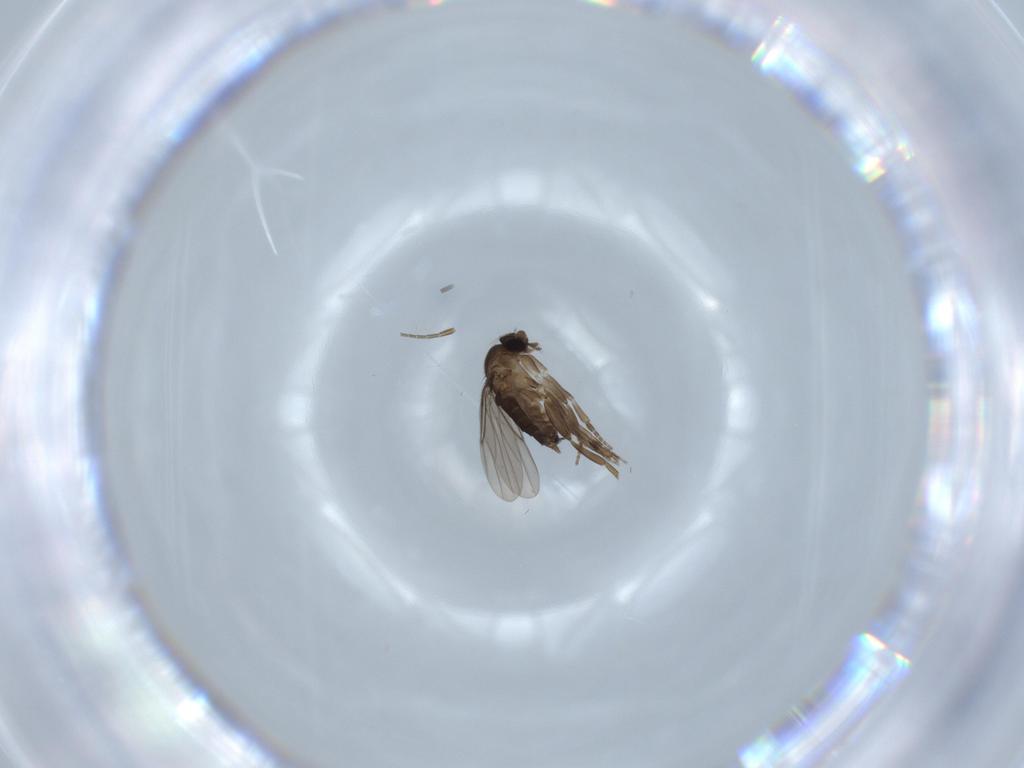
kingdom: Animalia
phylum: Arthropoda
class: Insecta
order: Diptera
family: Phoridae
